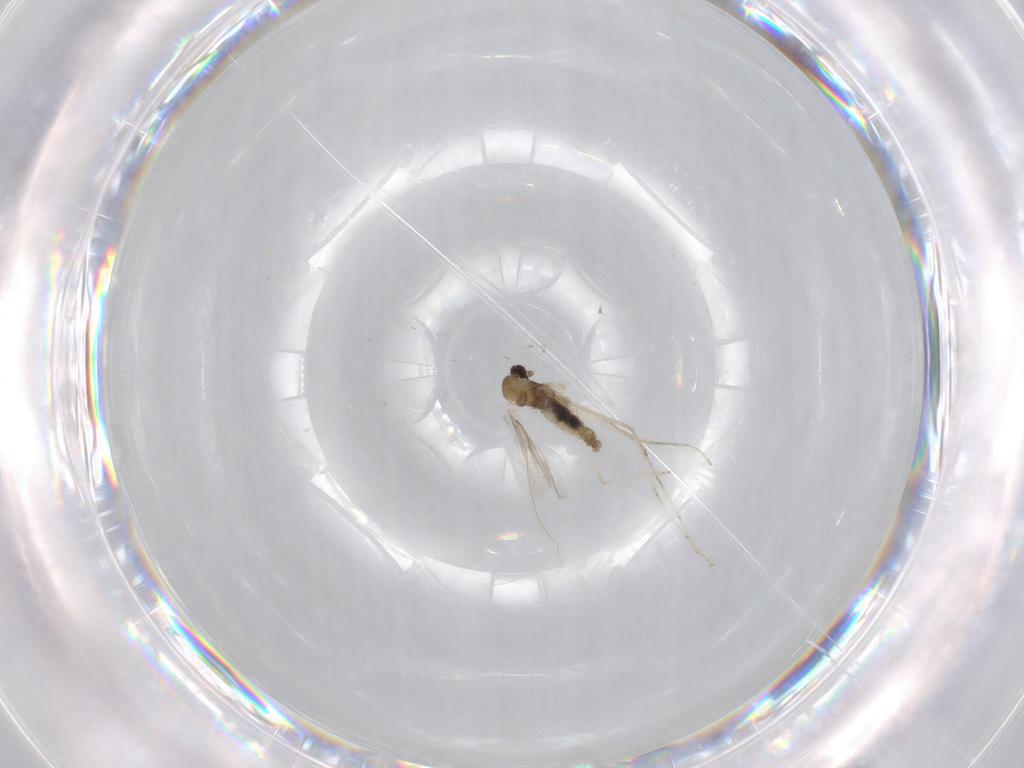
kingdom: Animalia
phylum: Arthropoda
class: Insecta
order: Diptera
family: Cecidomyiidae
